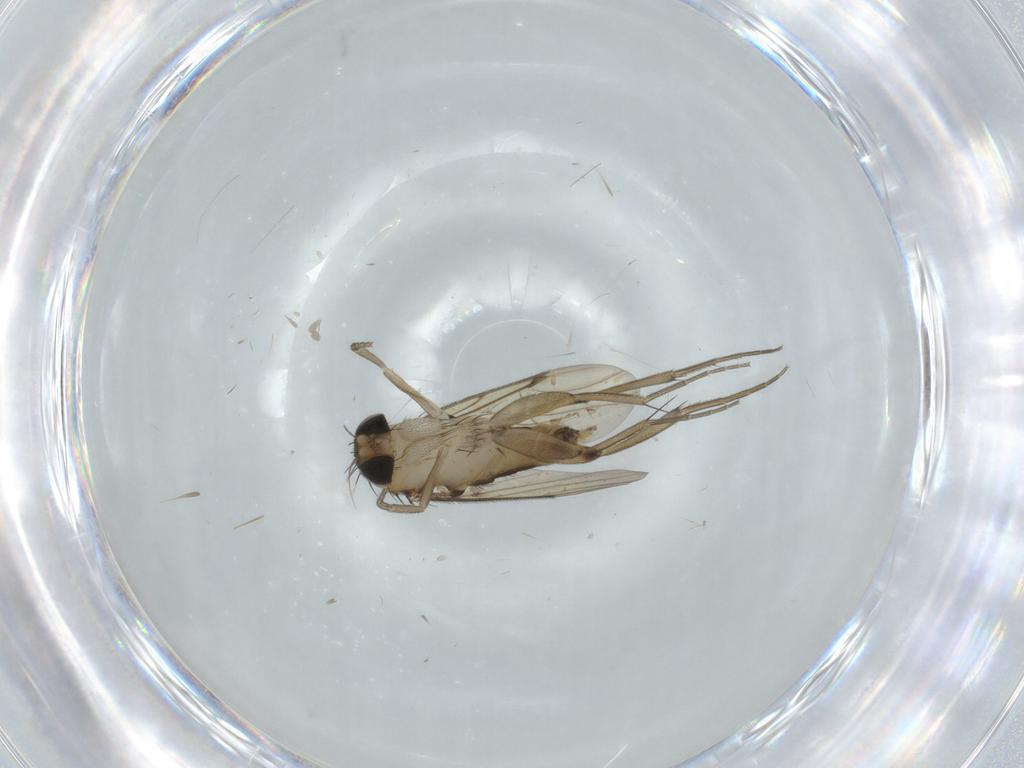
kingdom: Animalia
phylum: Arthropoda
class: Insecta
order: Diptera
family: Phoridae
